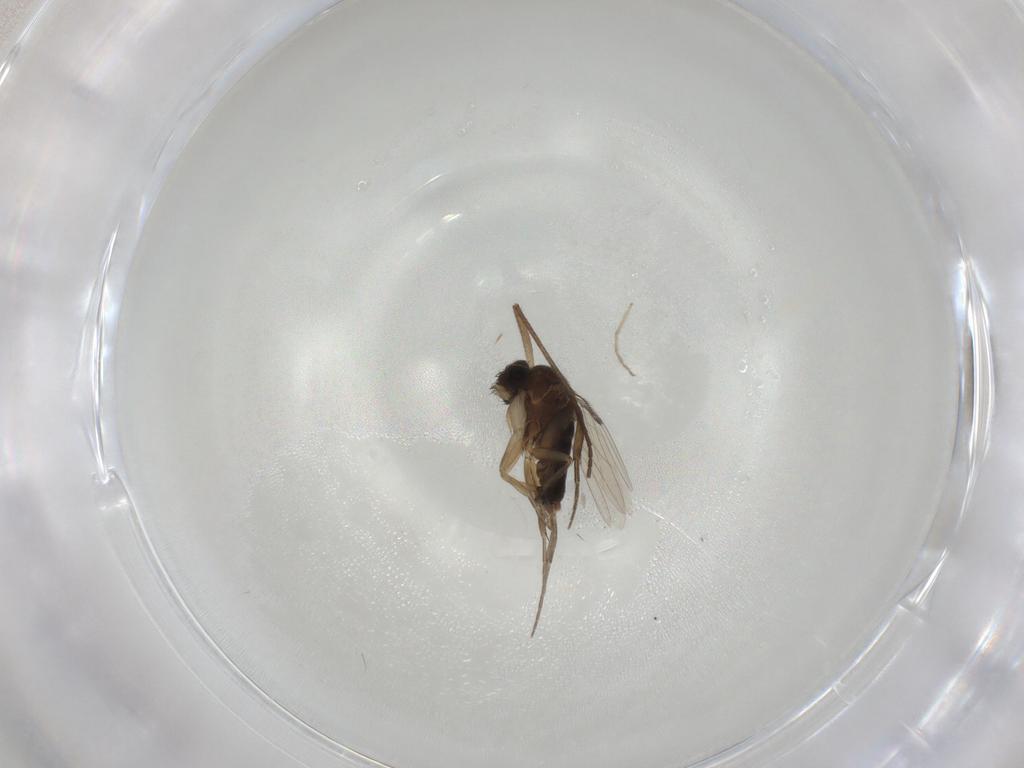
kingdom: Animalia
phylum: Arthropoda
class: Insecta
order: Diptera
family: Phoridae
